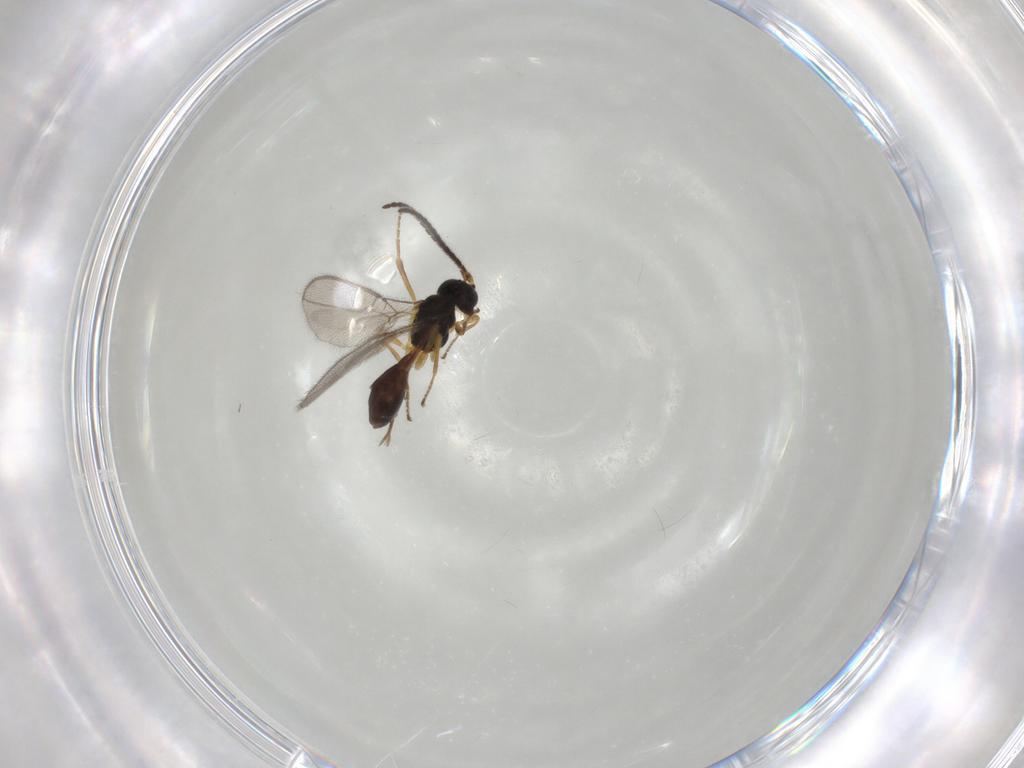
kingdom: Animalia
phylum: Arthropoda
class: Insecta
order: Hymenoptera
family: Braconidae
